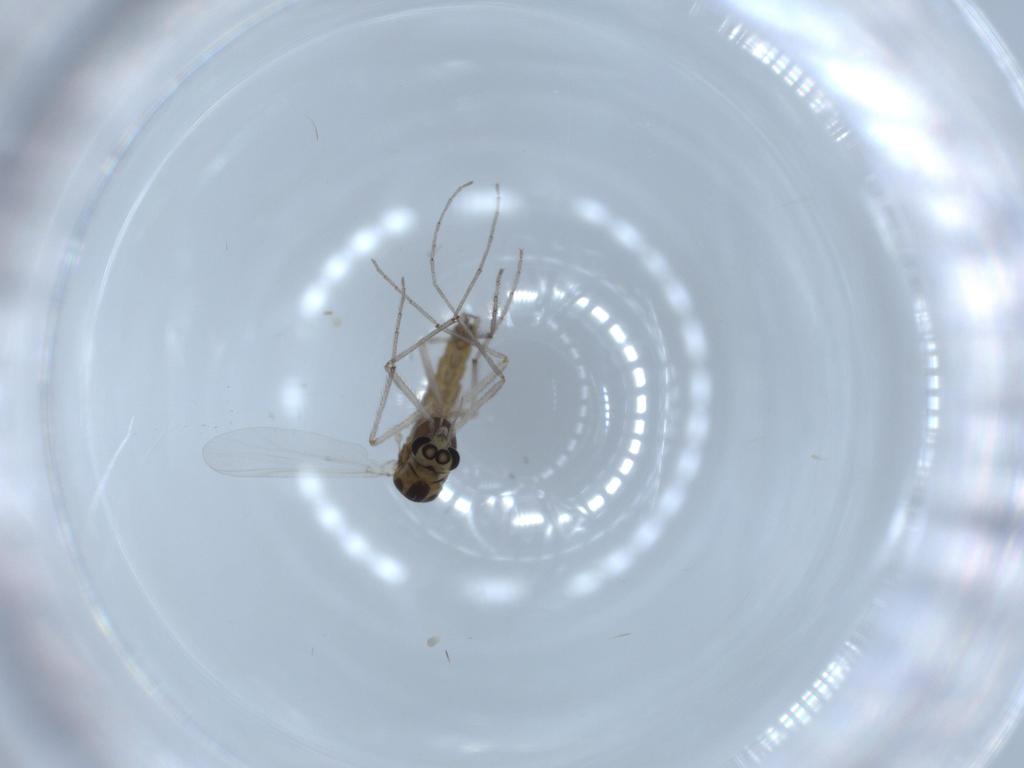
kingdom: Animalia
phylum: Arthropoda
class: Insecta
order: Diptera
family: Chironomidae
